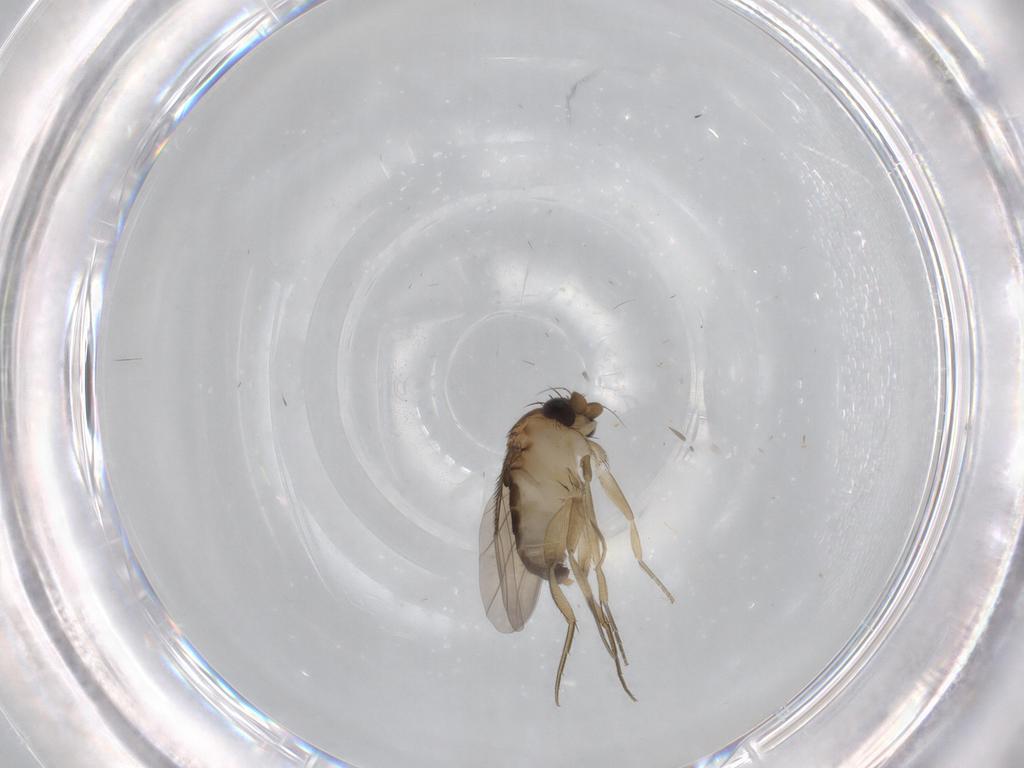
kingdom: Animalia
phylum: Arthropoda
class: Insecta
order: Diptera
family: Phoridae
